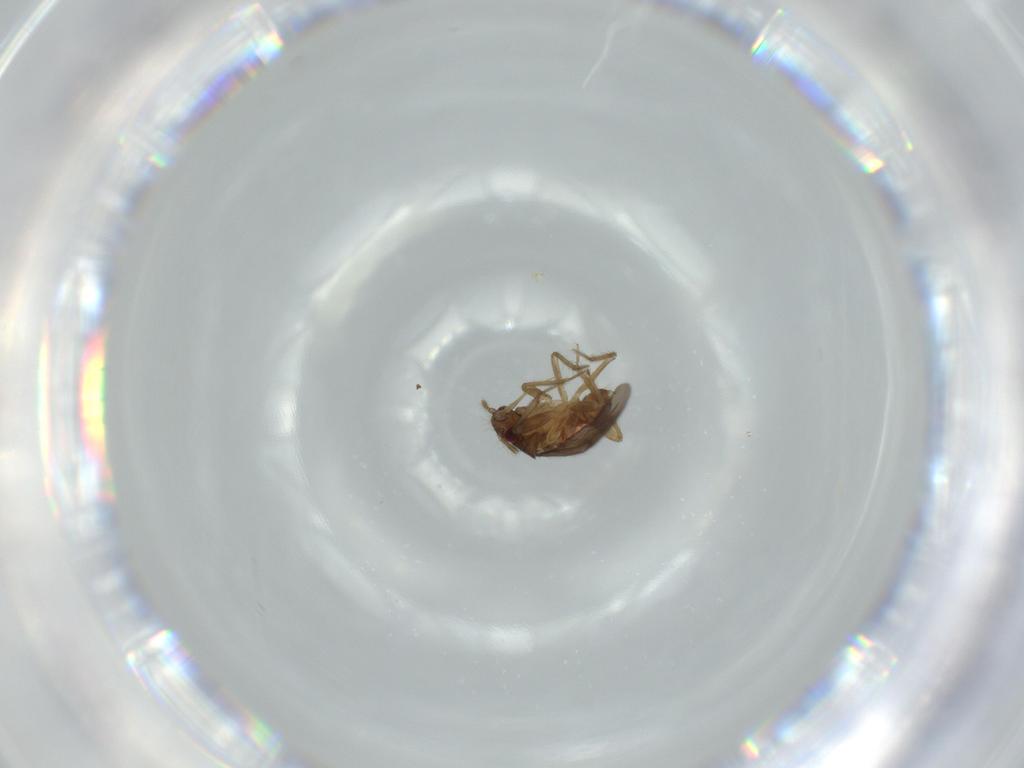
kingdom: Animalia
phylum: Arthropoda
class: Insecta
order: Hemiptera
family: Ceratocombidae
